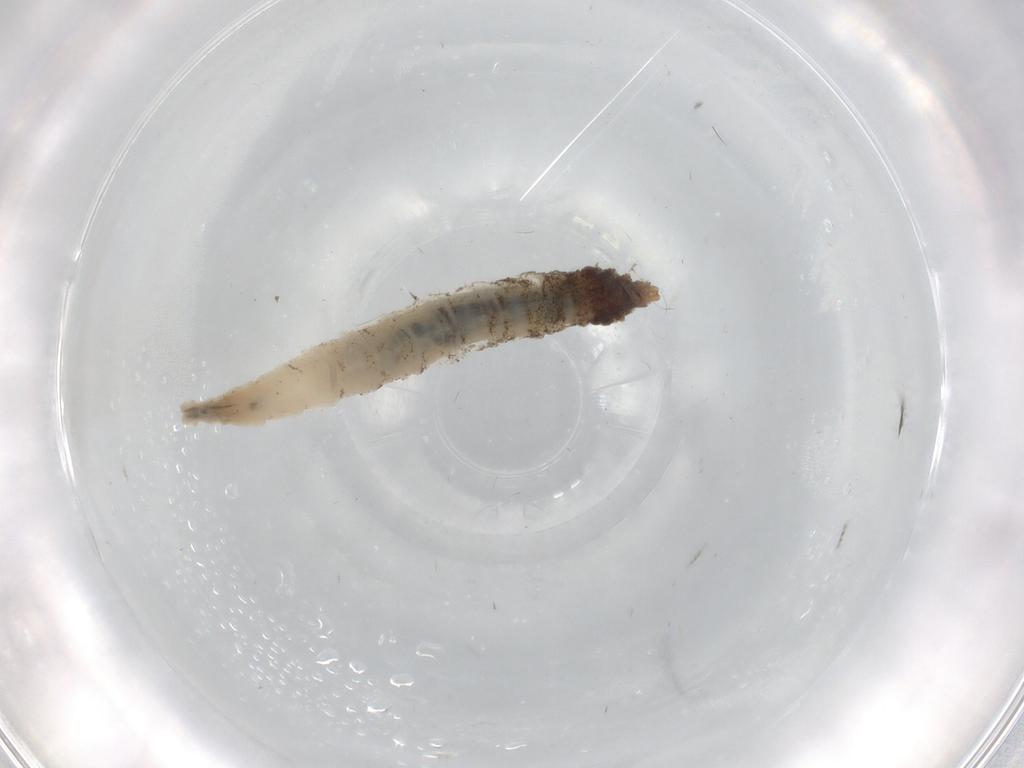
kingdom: Animalia
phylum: Arthropoda
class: Insecta
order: Diptera
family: Sciaridae
